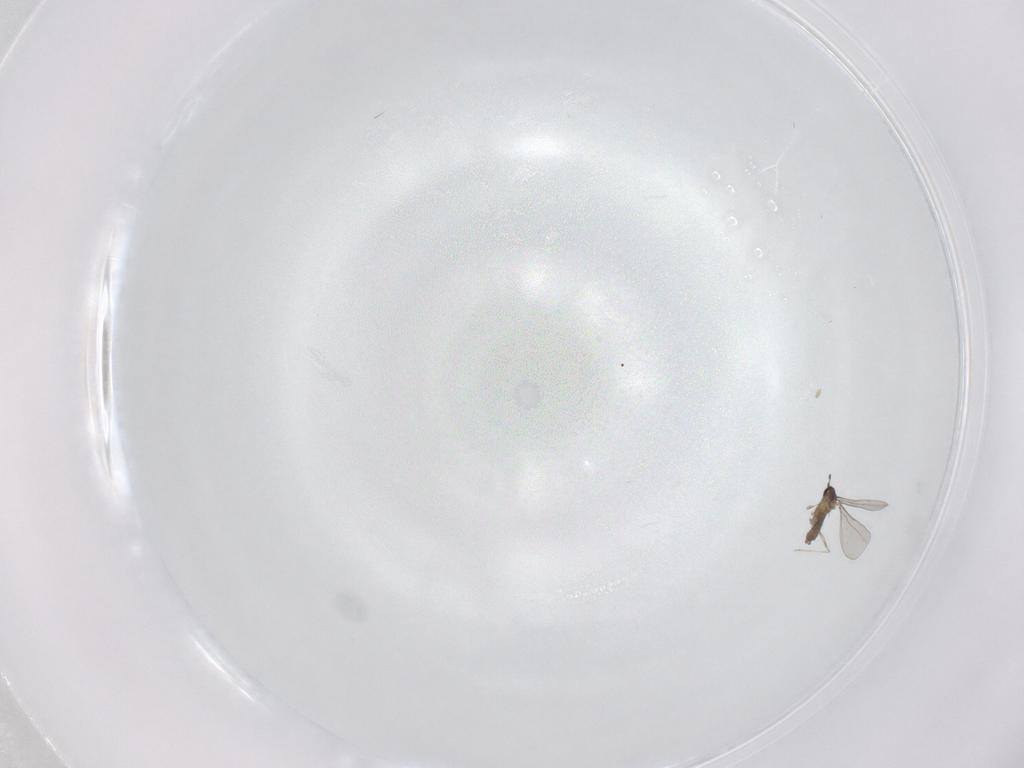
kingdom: Animalia
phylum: Arthropoda
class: Insecta
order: Diptera
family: Cecidomyiidae
